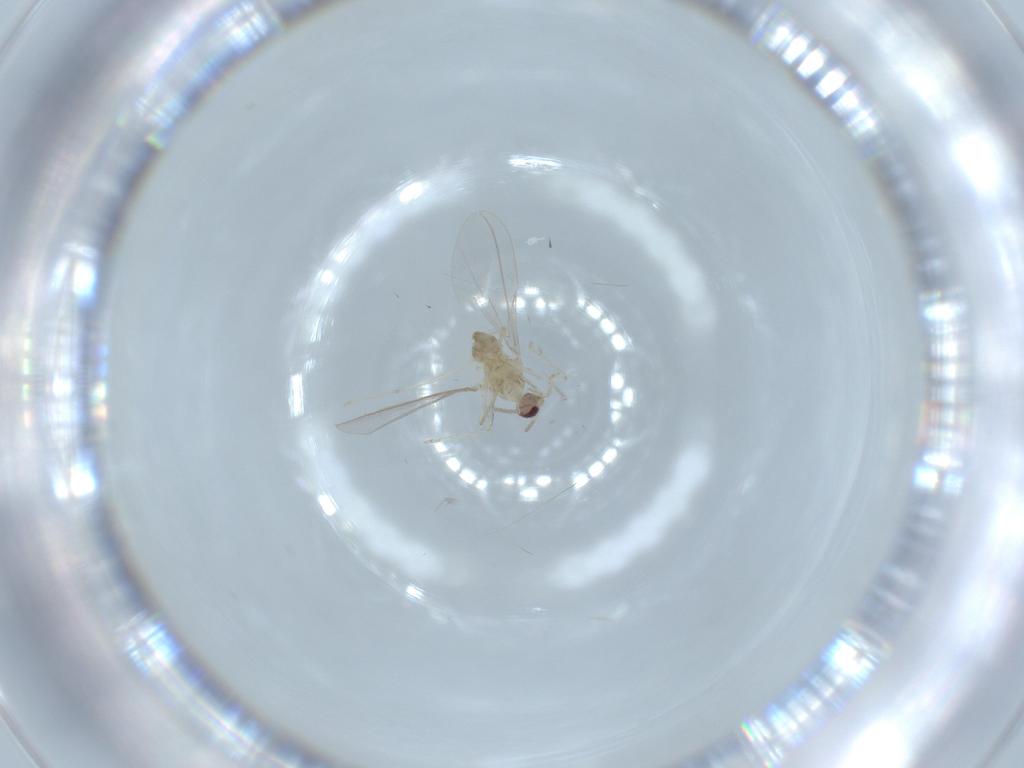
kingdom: Animalia
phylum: Arthropoda
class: Insecta
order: Diptera
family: Cecidomyiidae
